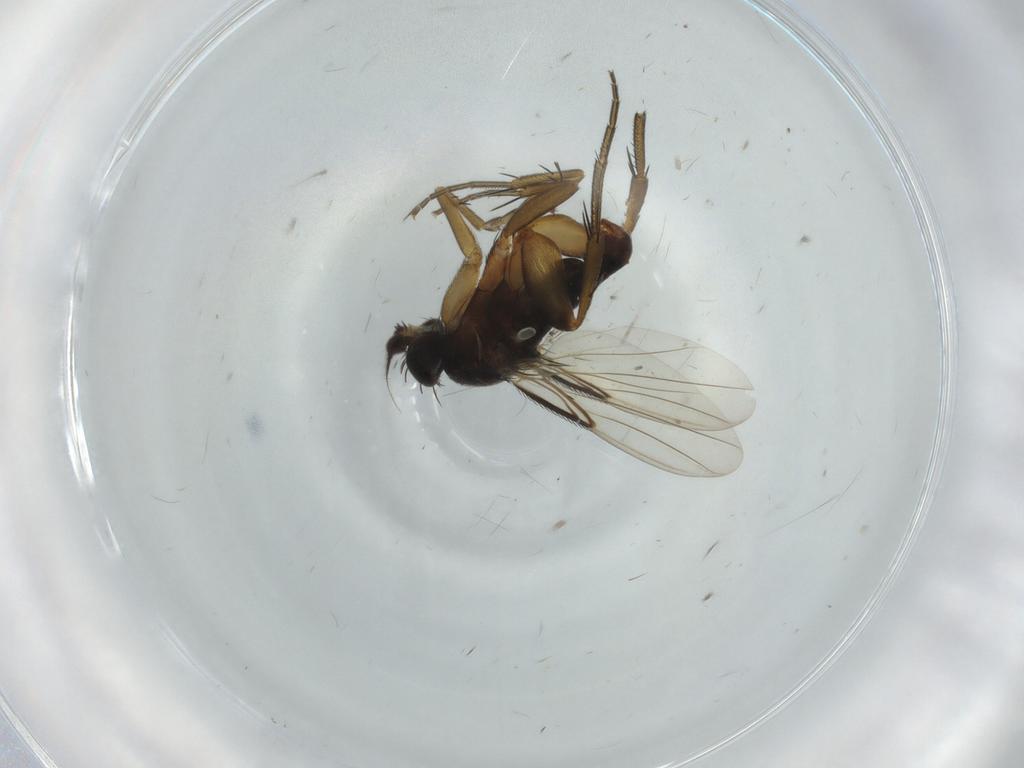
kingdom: Animalia
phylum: Arthropoda
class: Insecta
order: Diptera
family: Phoridae
